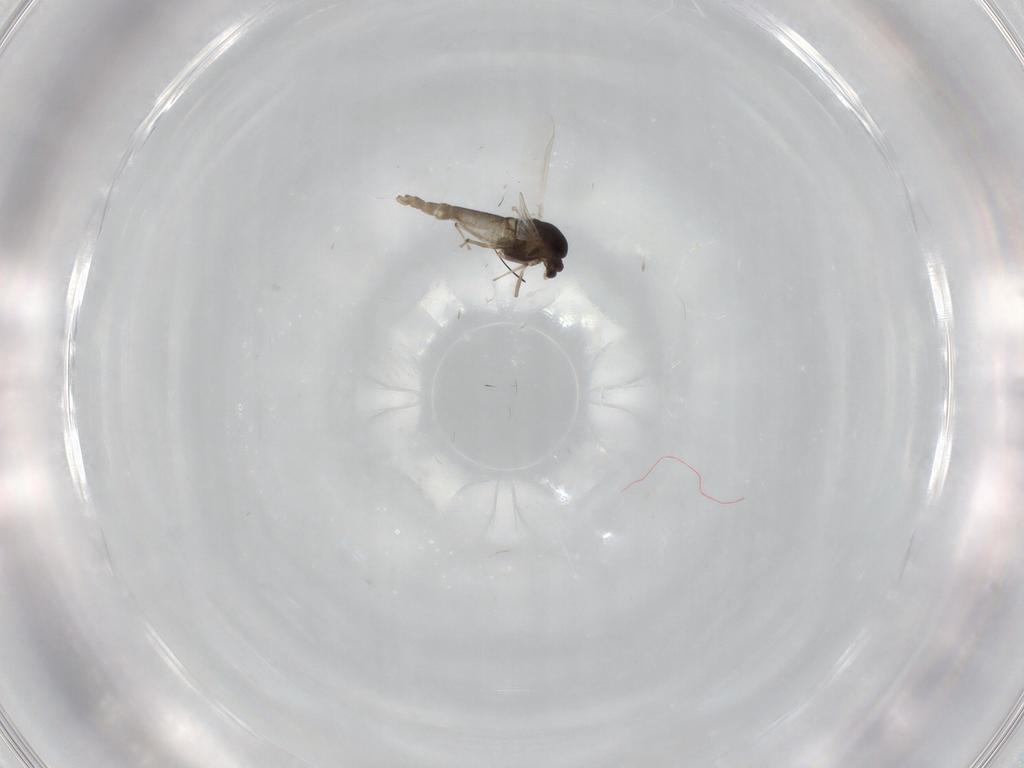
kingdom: Animalia
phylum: Arthropoda
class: Insecta
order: Diptera
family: Chironomidae
